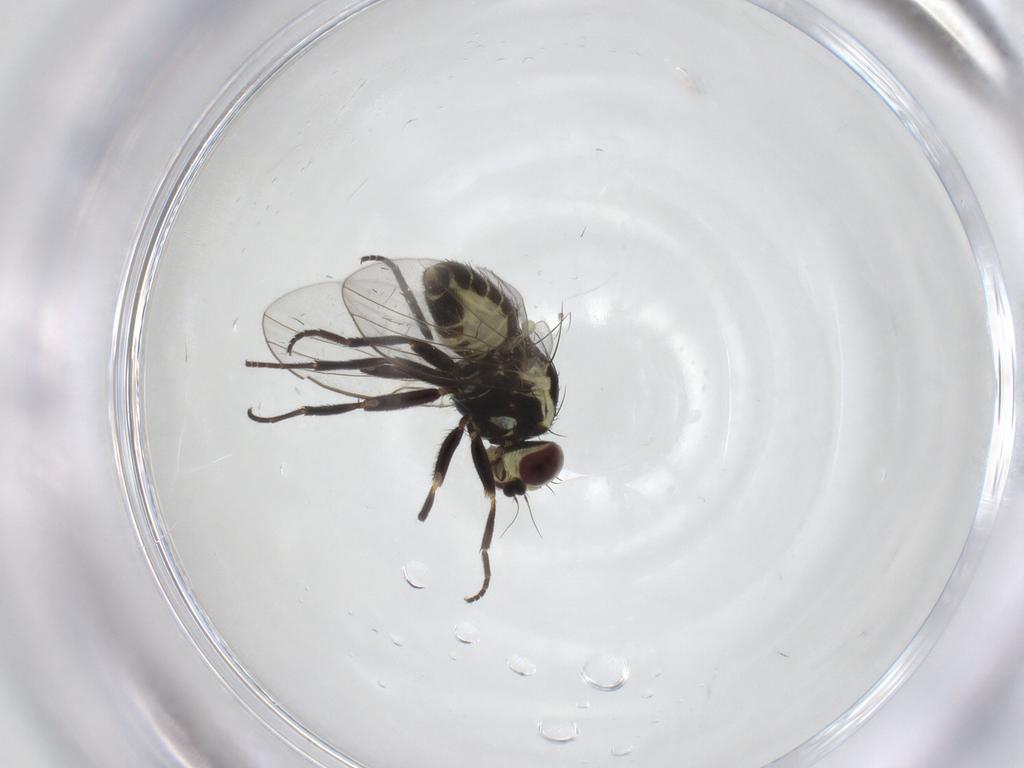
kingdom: Animalia
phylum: Arthropoda
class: Insecta
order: Diptera
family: Agromyzidae
